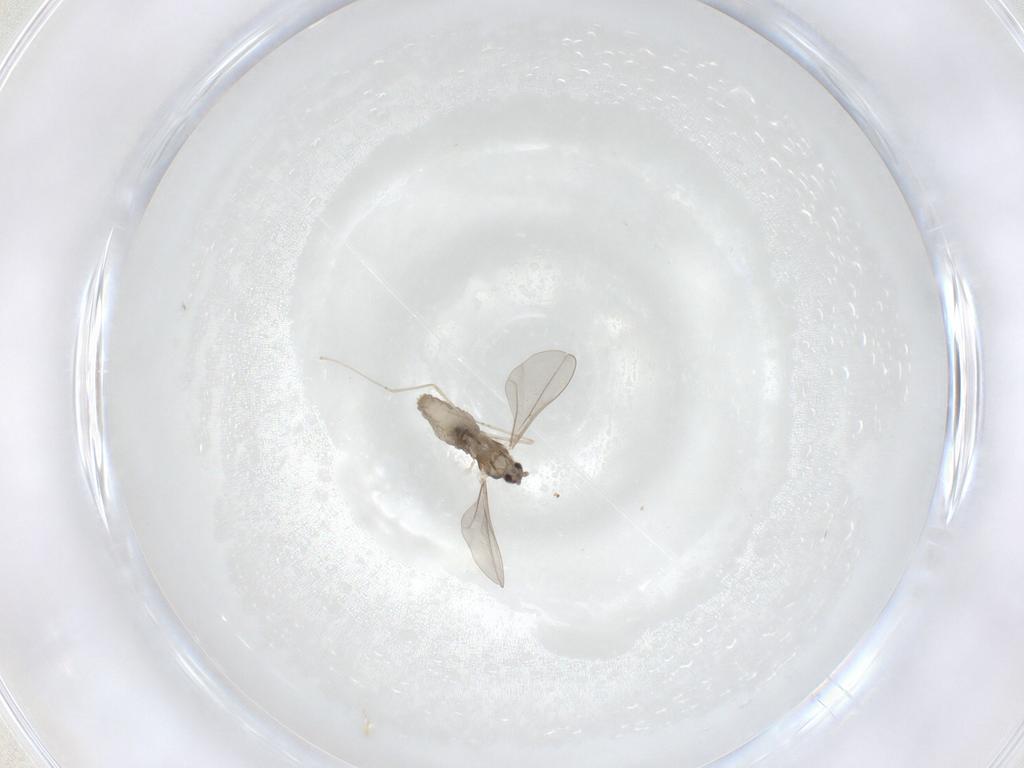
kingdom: Animalia
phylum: Arthropoda
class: Insecta
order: Diptera
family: Cecidomyiidae
